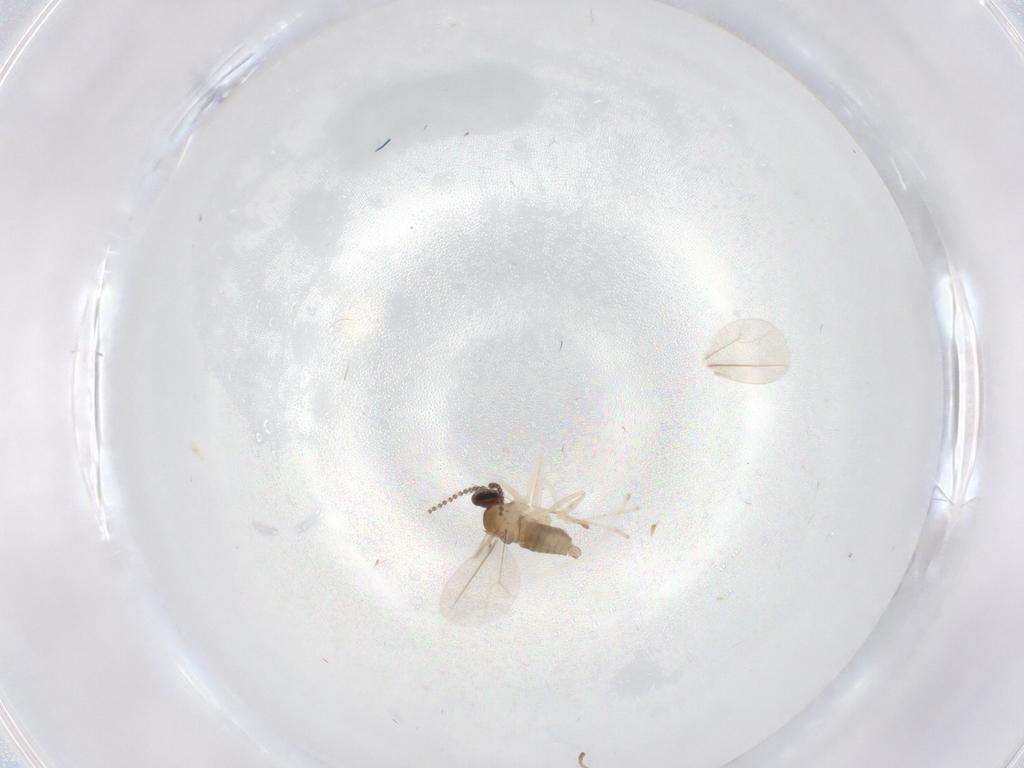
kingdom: Animalia
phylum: Arthropoda
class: Insecta
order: Diptera
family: Cecidomyiidae
